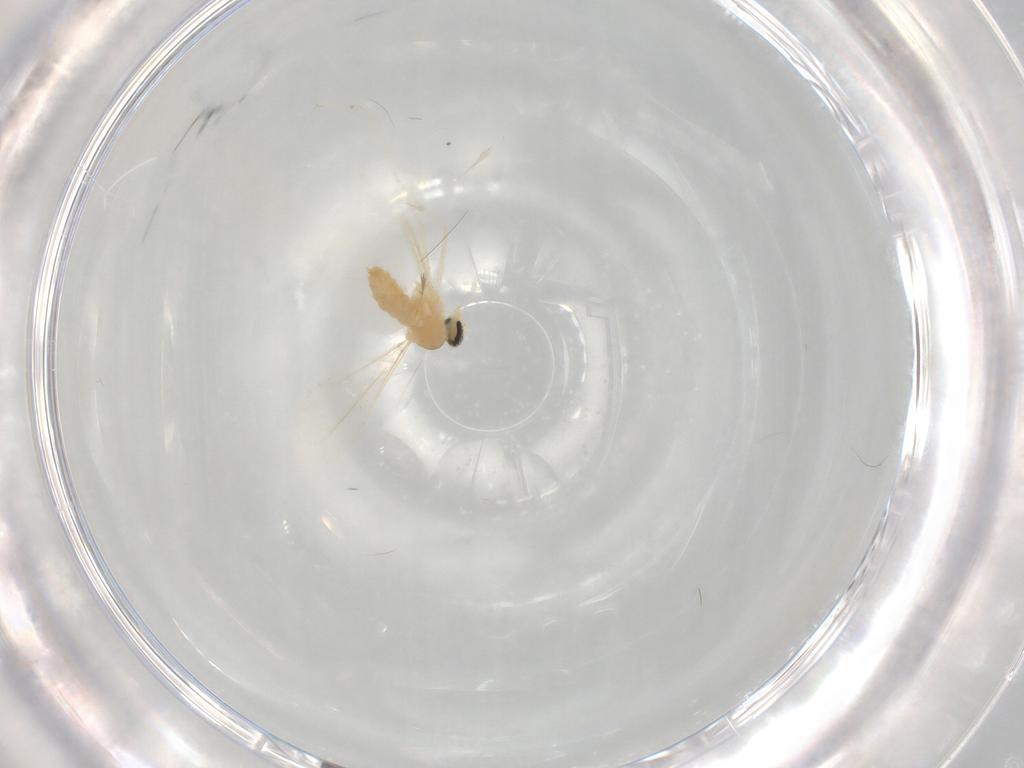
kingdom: Animalia
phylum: Arthropoda
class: Insecta
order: Diptera
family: Cecidomyiidae
